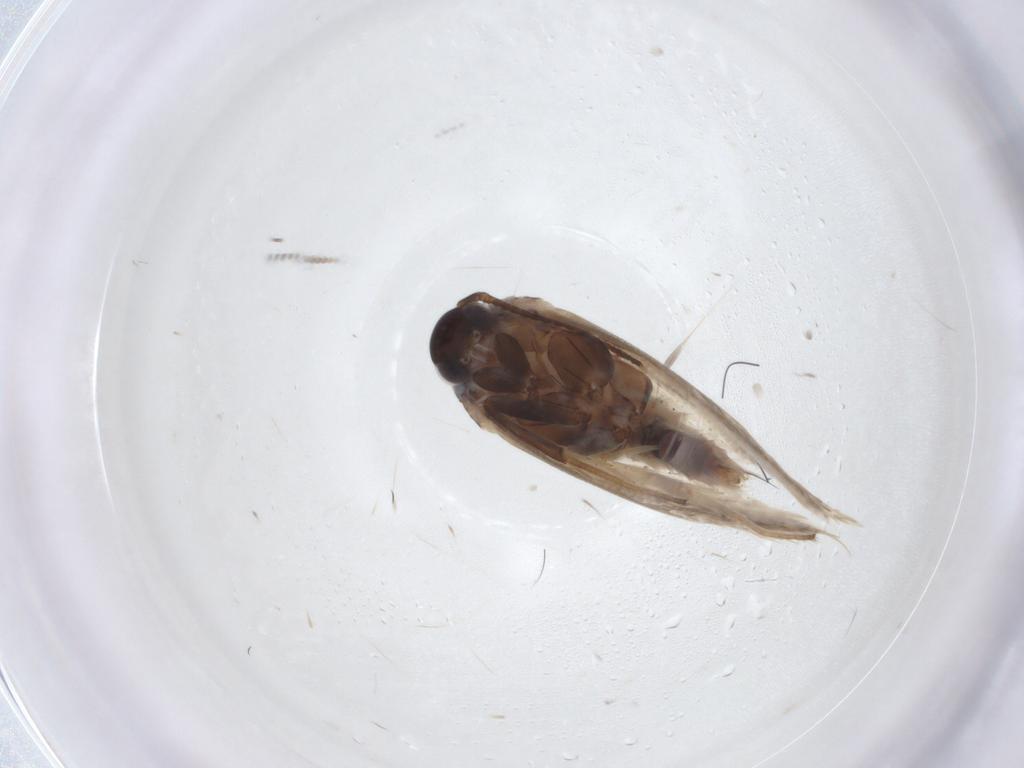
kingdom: Animalia
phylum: Arthropoda
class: Insecta
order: Lepidoptera
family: Erebidae
